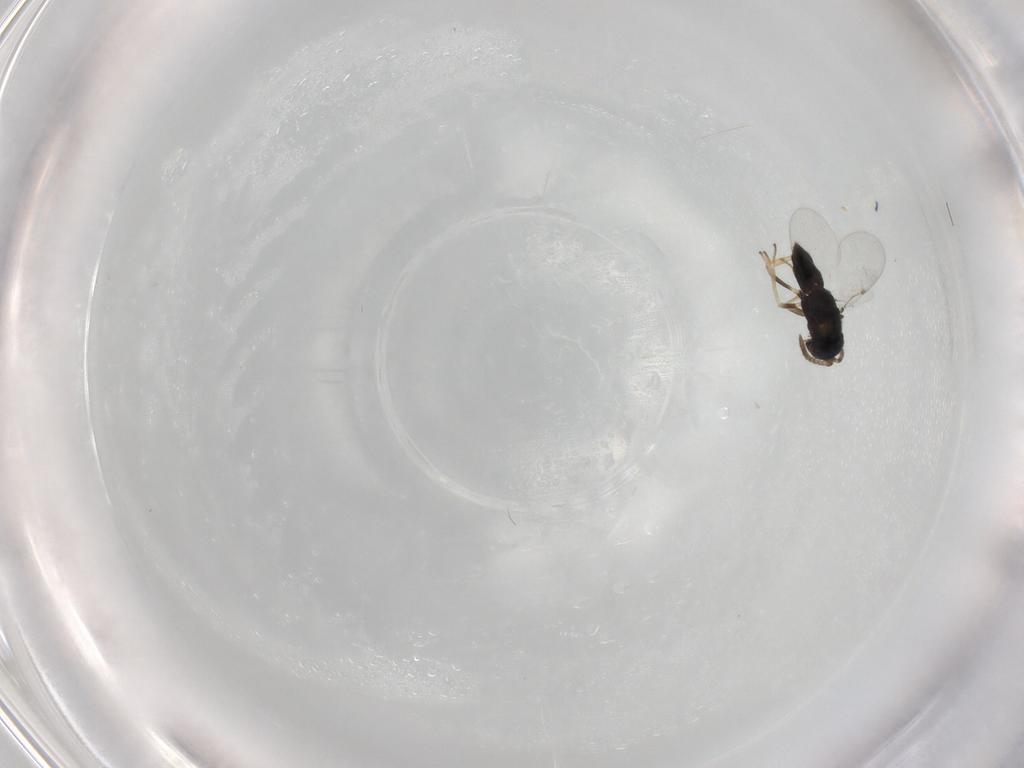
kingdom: Animalia
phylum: Arthropoda
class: Insecta
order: Hymenoptera
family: Encyrtidae
